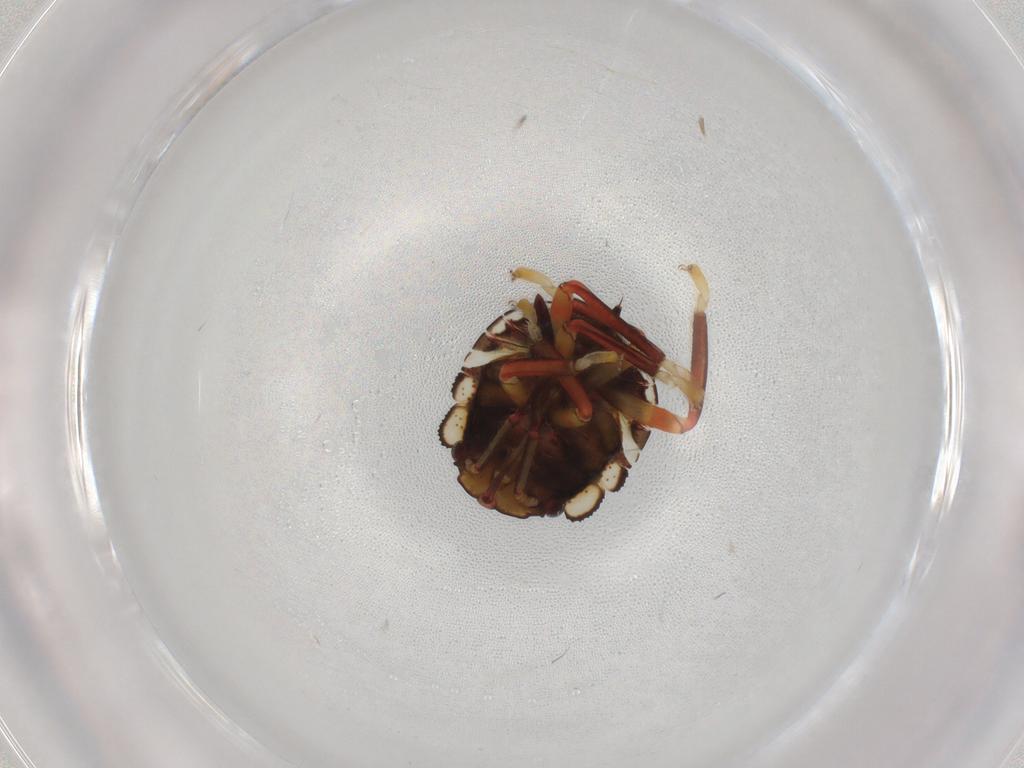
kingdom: Animalia
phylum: Arthropoda
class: Insecta
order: Hemiptera
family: Pentatomidae
